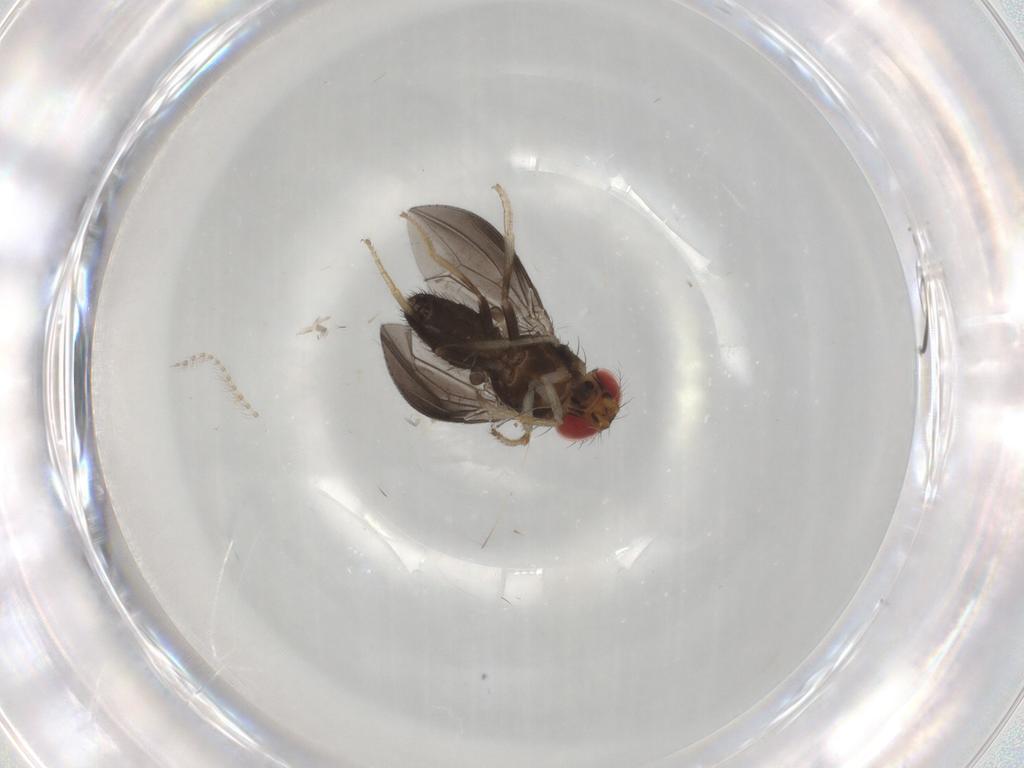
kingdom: Animalia
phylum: Arthropoda
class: Insecta
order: Diptera
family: Psychodidae
